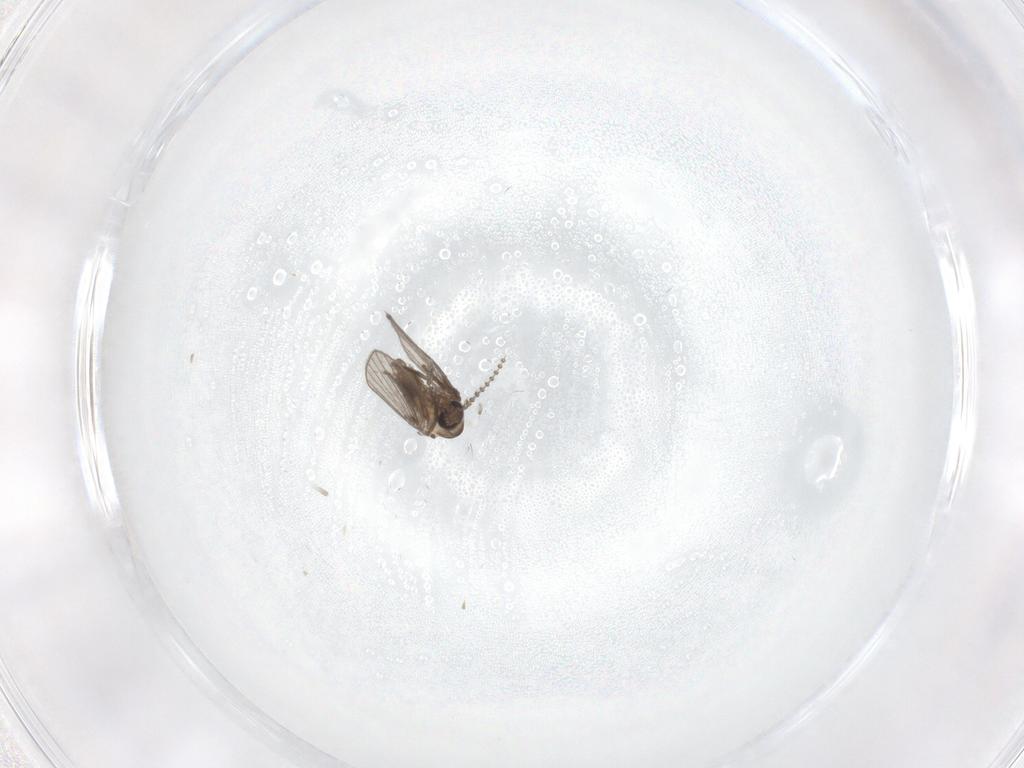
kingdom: Animalia
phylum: Arthropoda
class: Insecta
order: Diptera
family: Psychodidae
